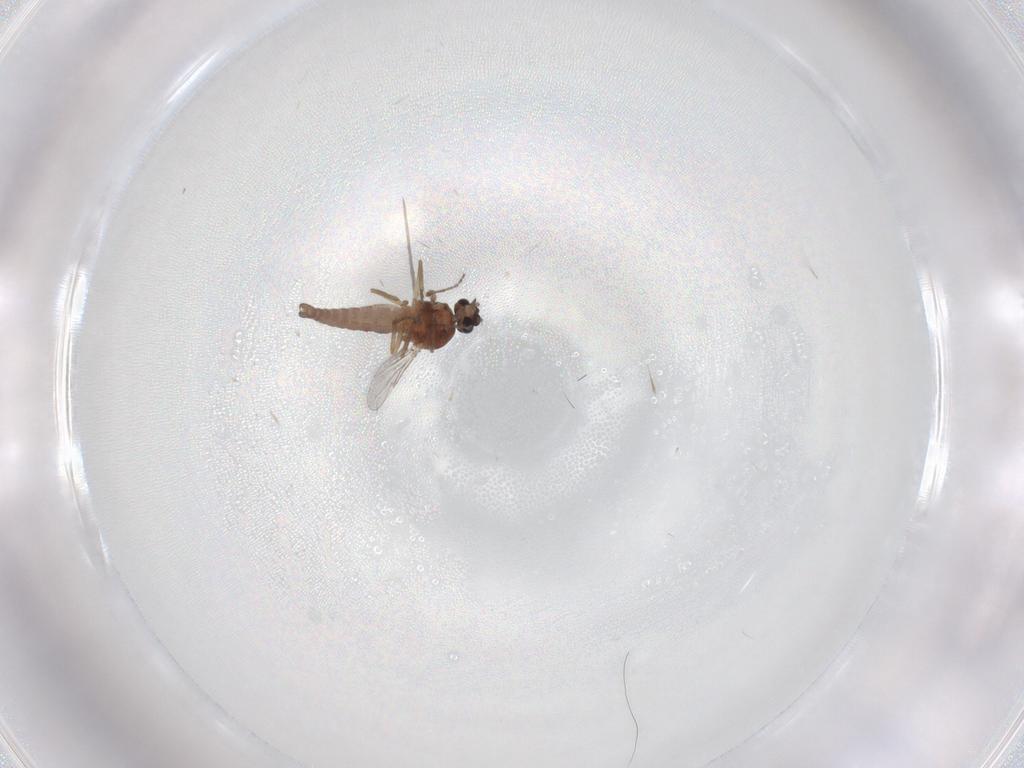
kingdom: Animalia
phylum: Arthropoda
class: Insecta
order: Diptera
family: Ceratopogonidae
